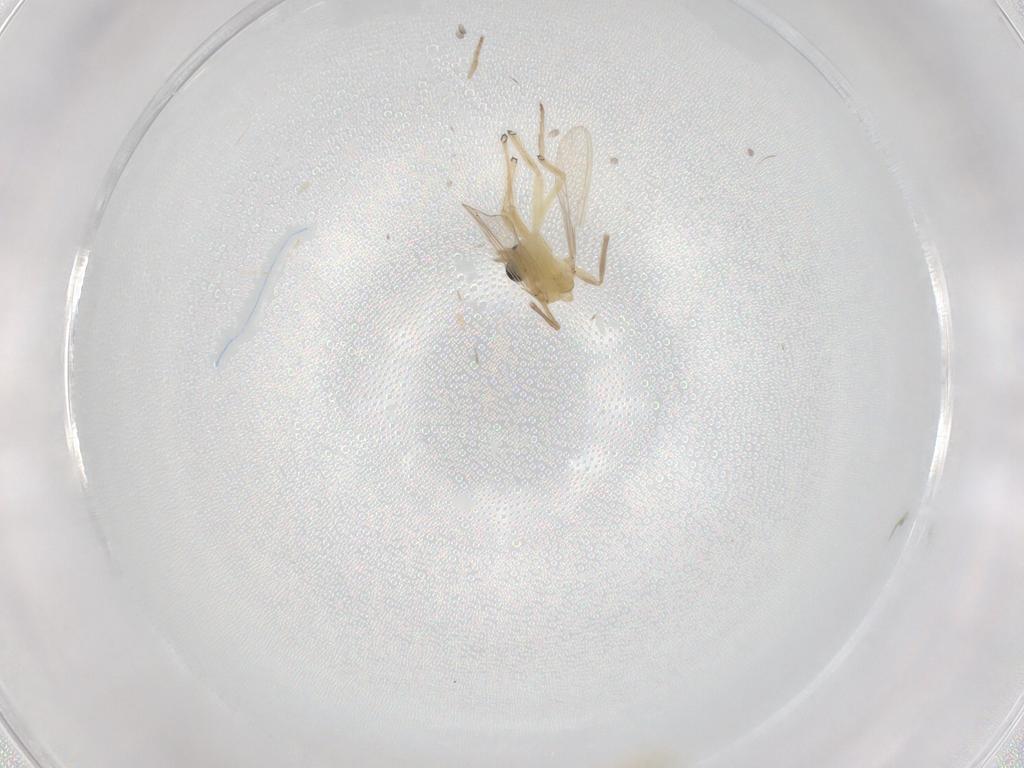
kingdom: Animalia
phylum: Arthropoda
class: Insecta
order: Diptera
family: Chironomidae
